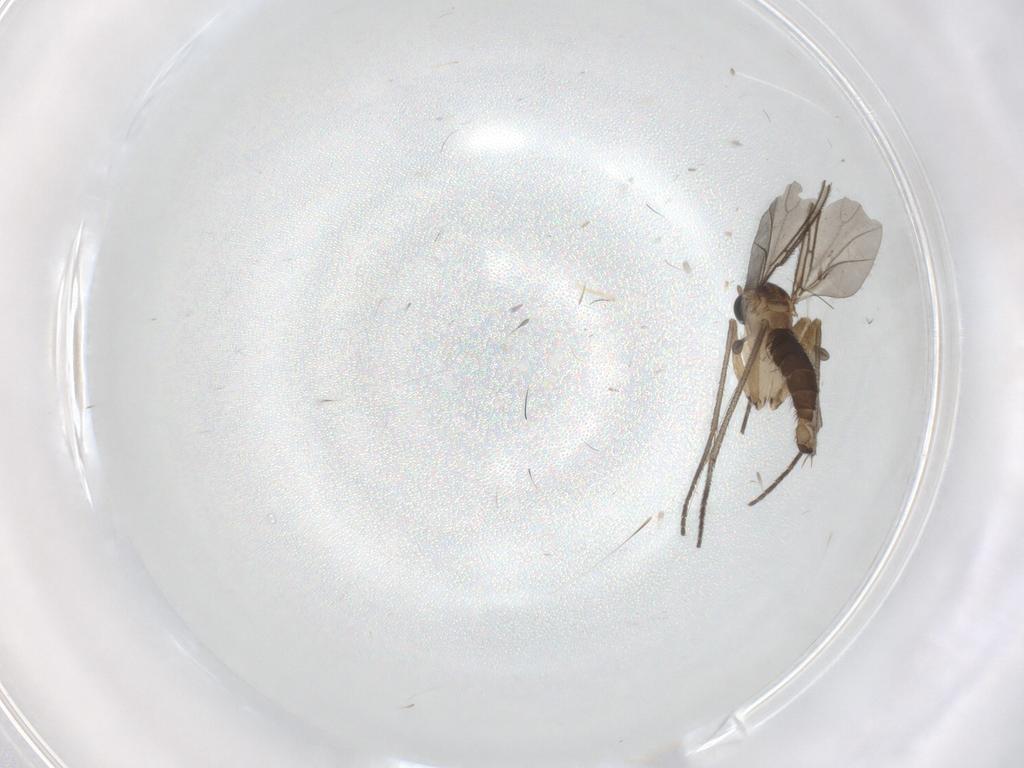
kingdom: Animalia
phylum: Arthropoda
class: Insecta
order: Diptera
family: Sciaridae
